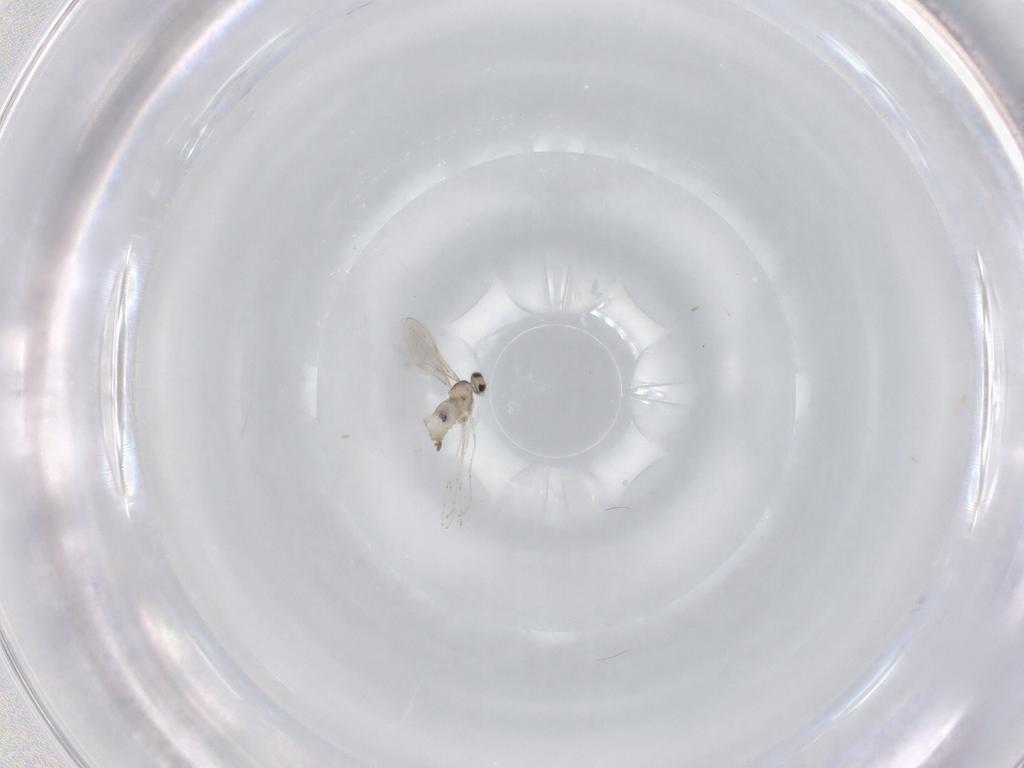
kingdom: Animalia
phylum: Arthropoda
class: Insecta
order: Diptera
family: Cecidomyiidae
